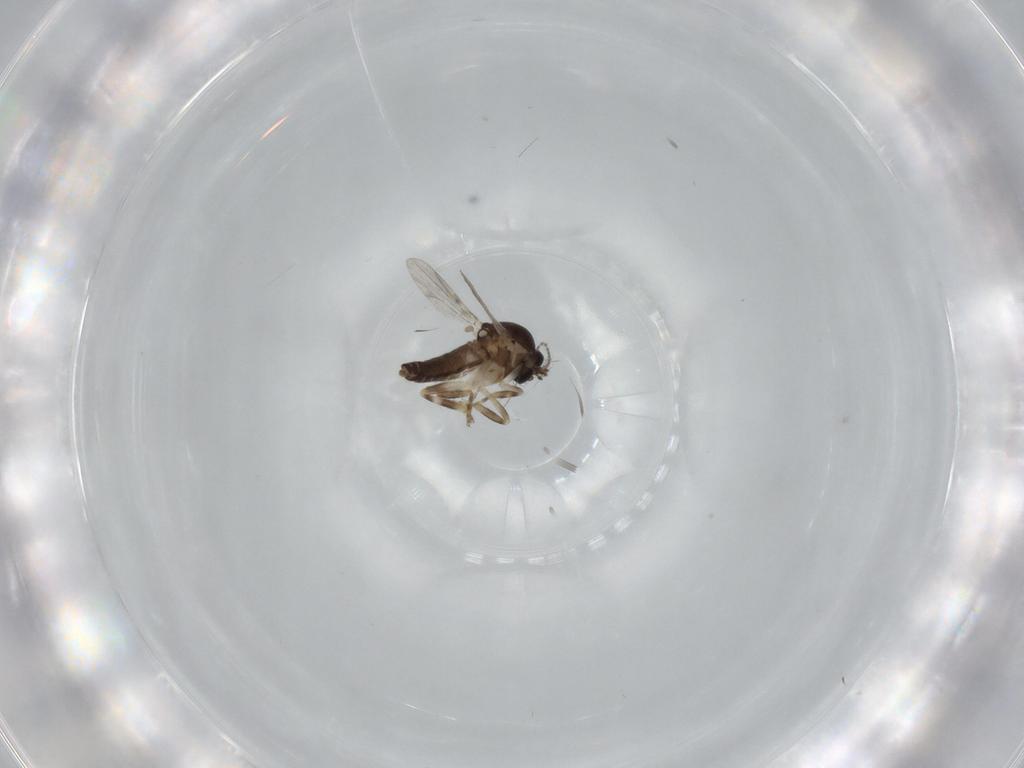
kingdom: Animalia
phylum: Arthropoda
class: Insecta
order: Diptera
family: Ceratopogonidae
